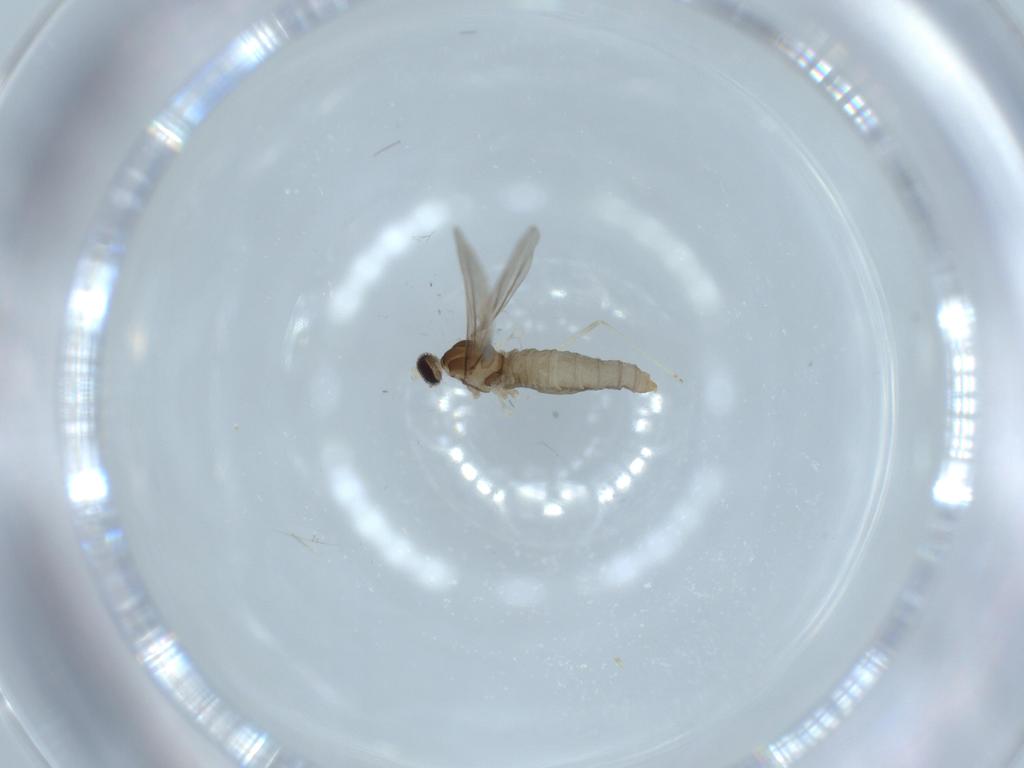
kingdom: Animalia
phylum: Arthropoda
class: Insecta
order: Diptera
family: Cecidomyiidae
